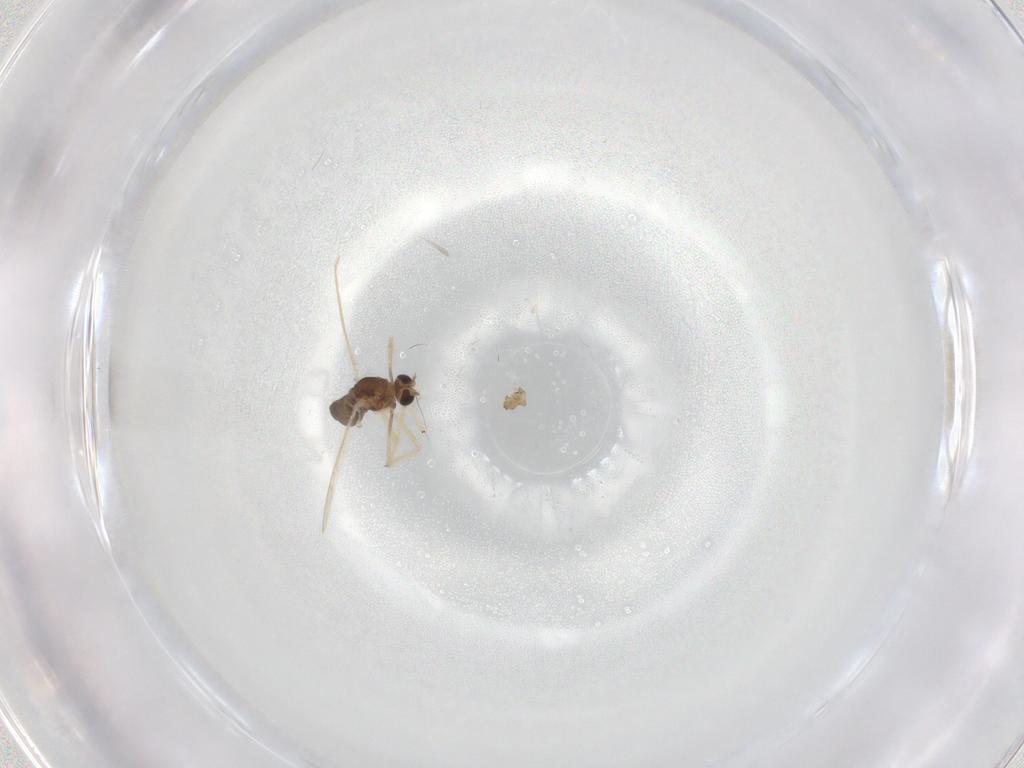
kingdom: Animalia
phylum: Arthropoda
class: Insecta
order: Diptera
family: Chironomidae
